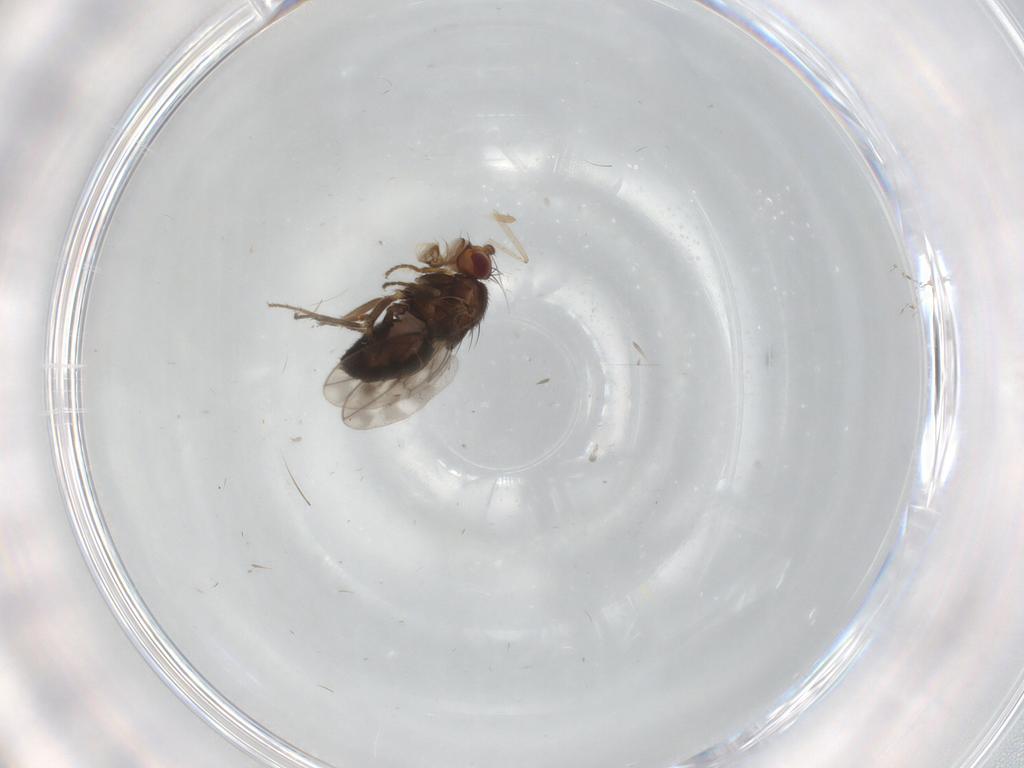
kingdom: Animalia
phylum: Arthropoda
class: Insecta
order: Diptera
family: Sphaeroceridae
